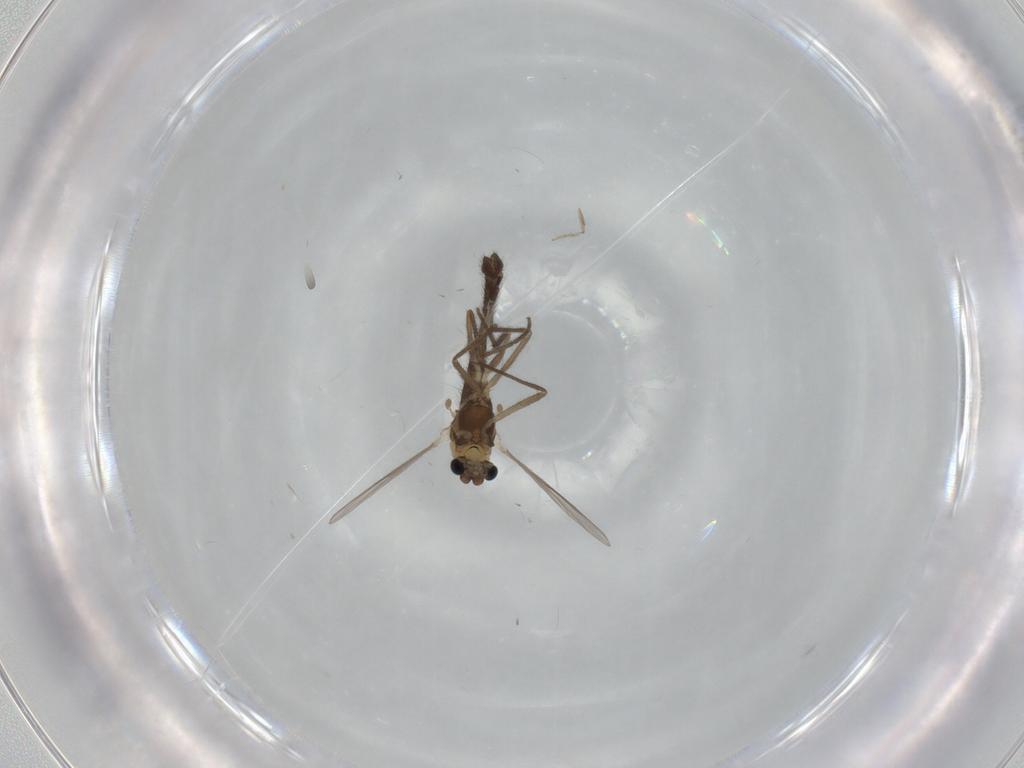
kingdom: Animalia
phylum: Arthropoda
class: Insecta
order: Diptera
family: Chironomidae
